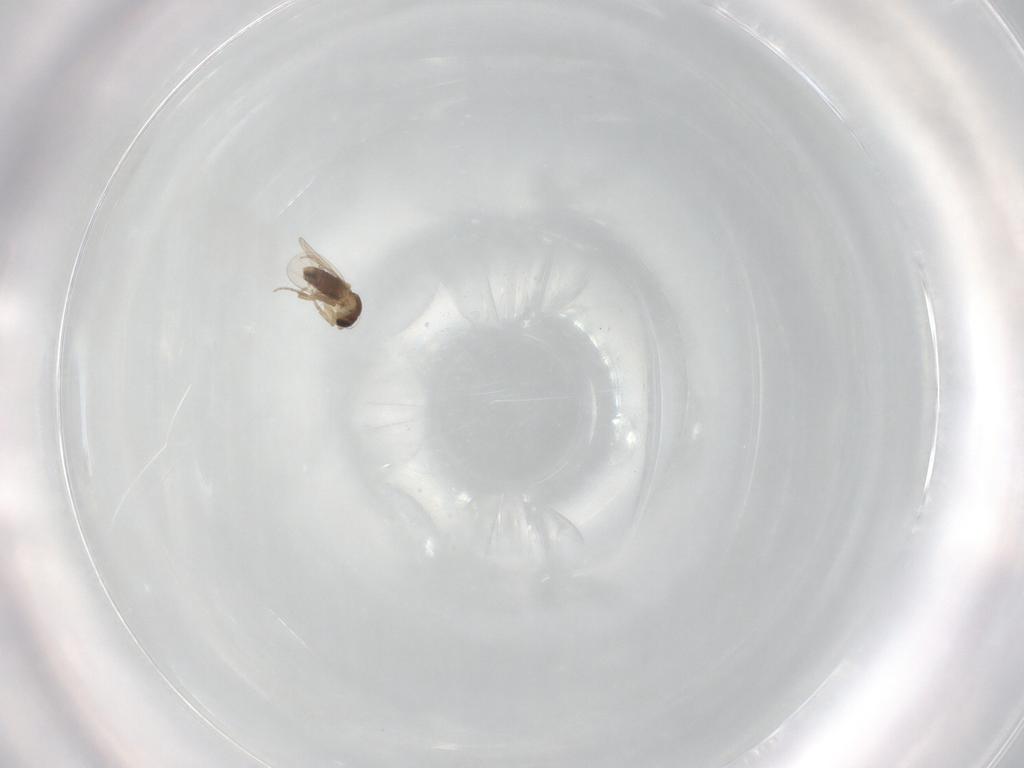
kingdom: Animalia
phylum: Arthropoda
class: Insecta
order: Diptera
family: Phoridae
